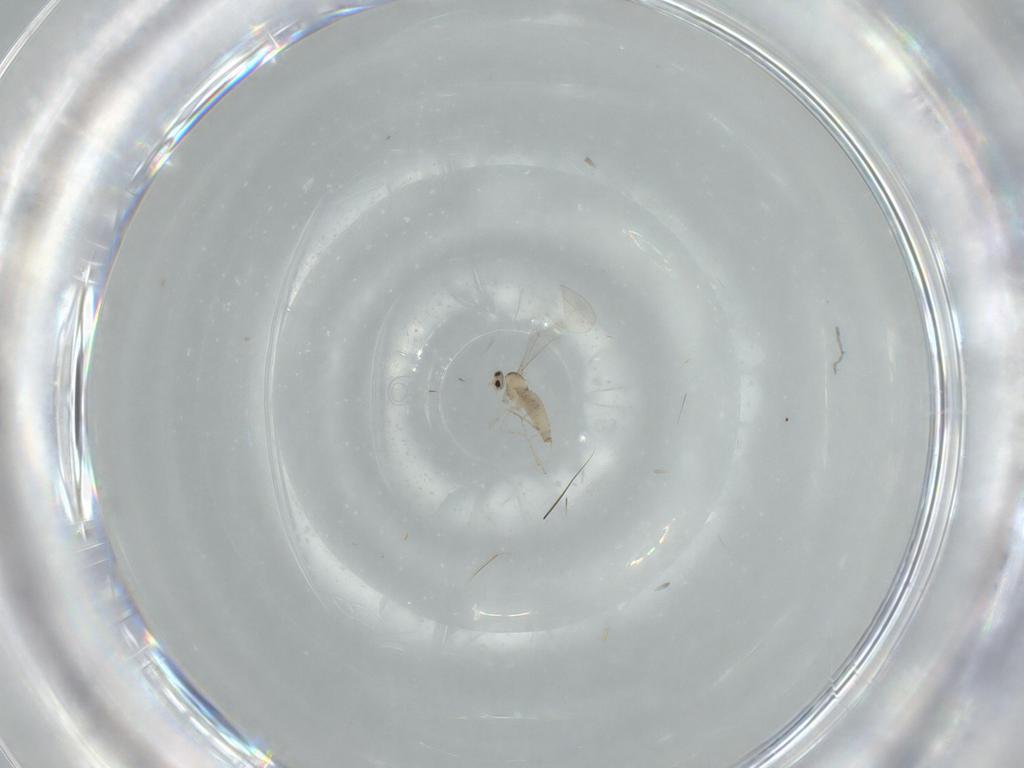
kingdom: Animalia
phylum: Arthropoda
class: Insecta
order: Diptera
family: Cecidomyiidae
